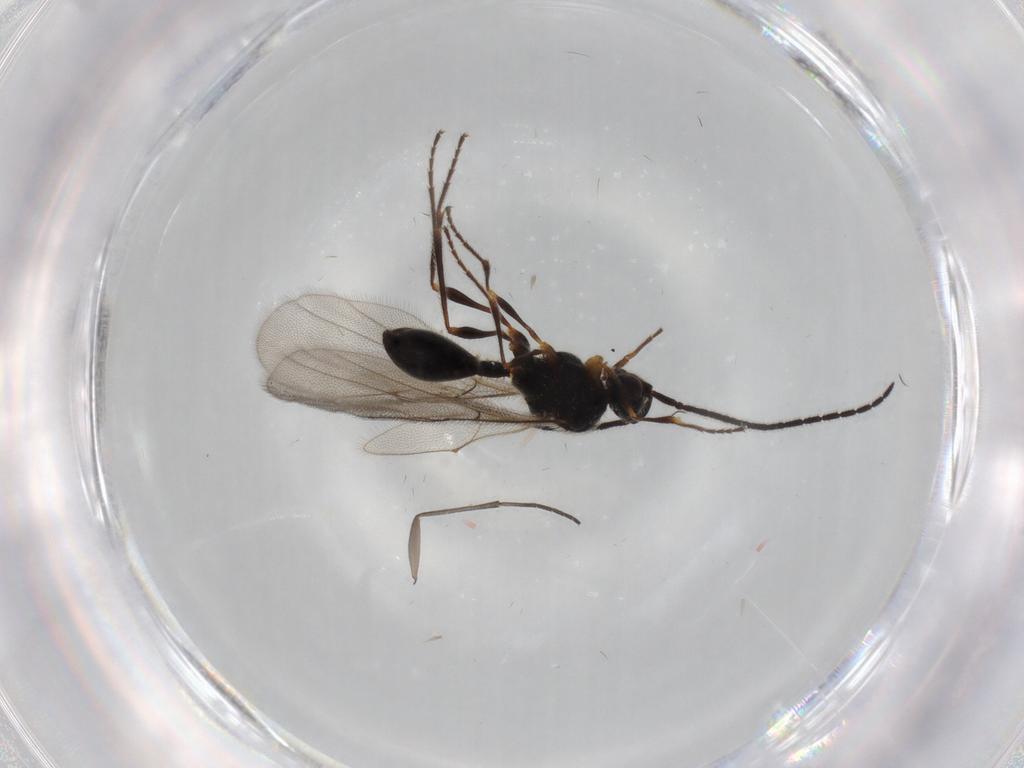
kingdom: Animalia
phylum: Arthropoda
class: Insecta
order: Hymenoptera
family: Diapriidae
